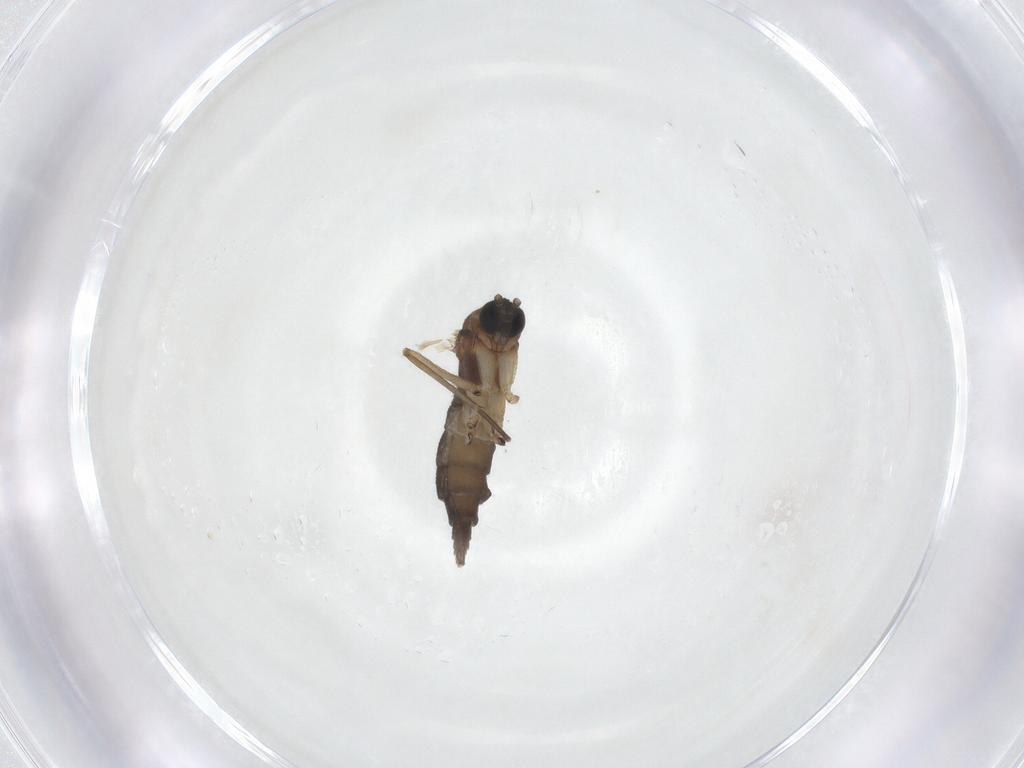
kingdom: Animalia
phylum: Arthropoda
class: Insecta
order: Diptera
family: Sciaridae
